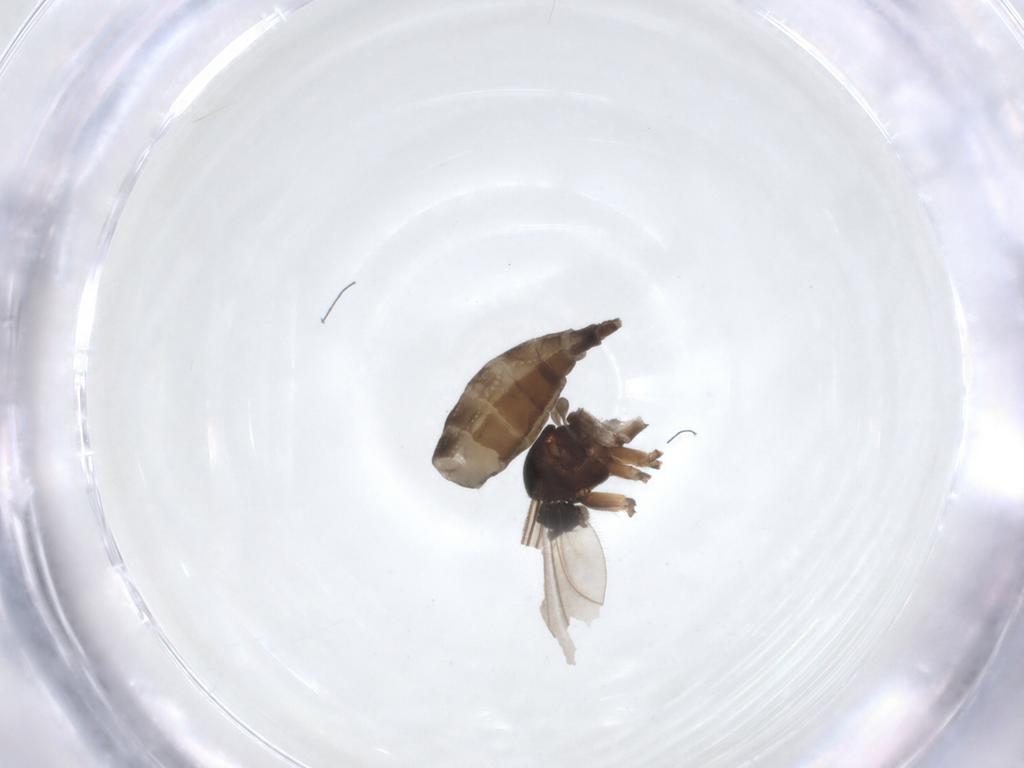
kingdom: Animalia
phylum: Arthropoda
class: Insecta
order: Diptera
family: Sciaridae
